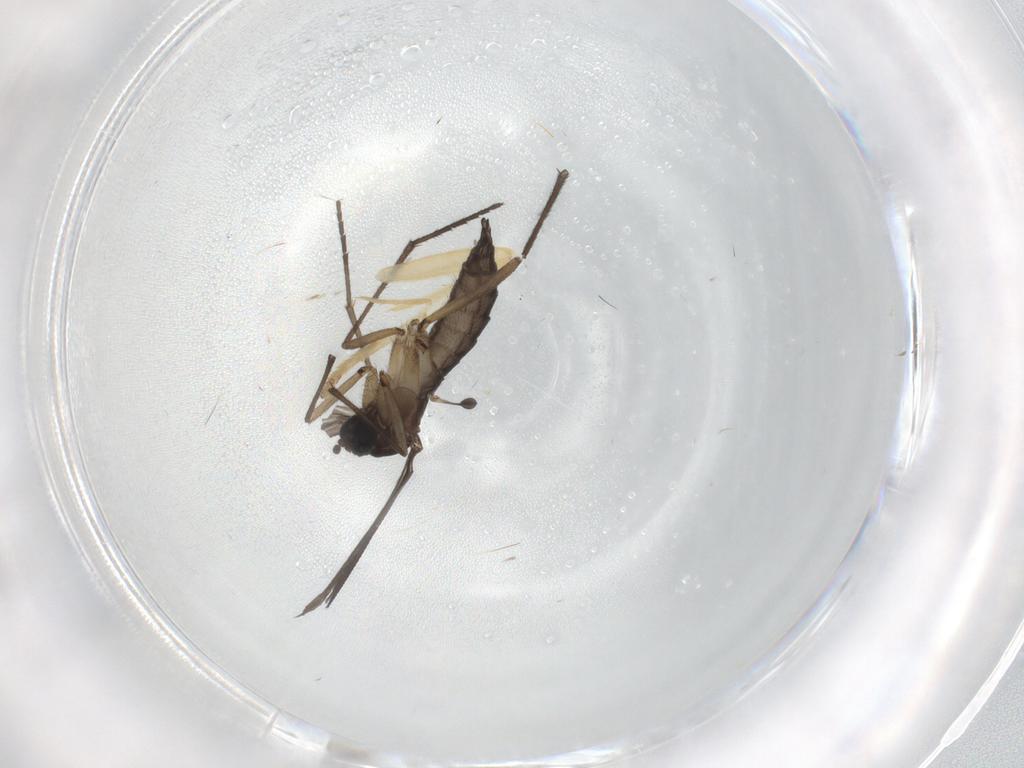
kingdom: Animalia
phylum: Arthropoda
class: Insecta
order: Diptera
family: Sciaridae
